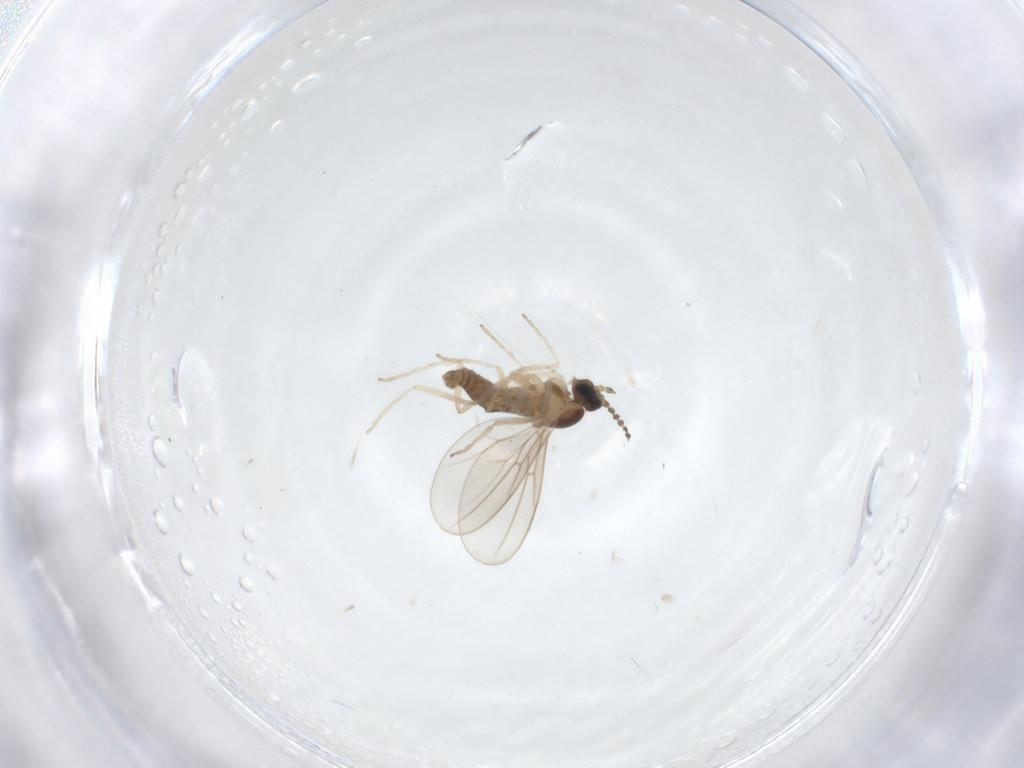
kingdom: Animalia
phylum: Arthropoda
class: Insecta
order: Diptera
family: Cecidomyiidae
